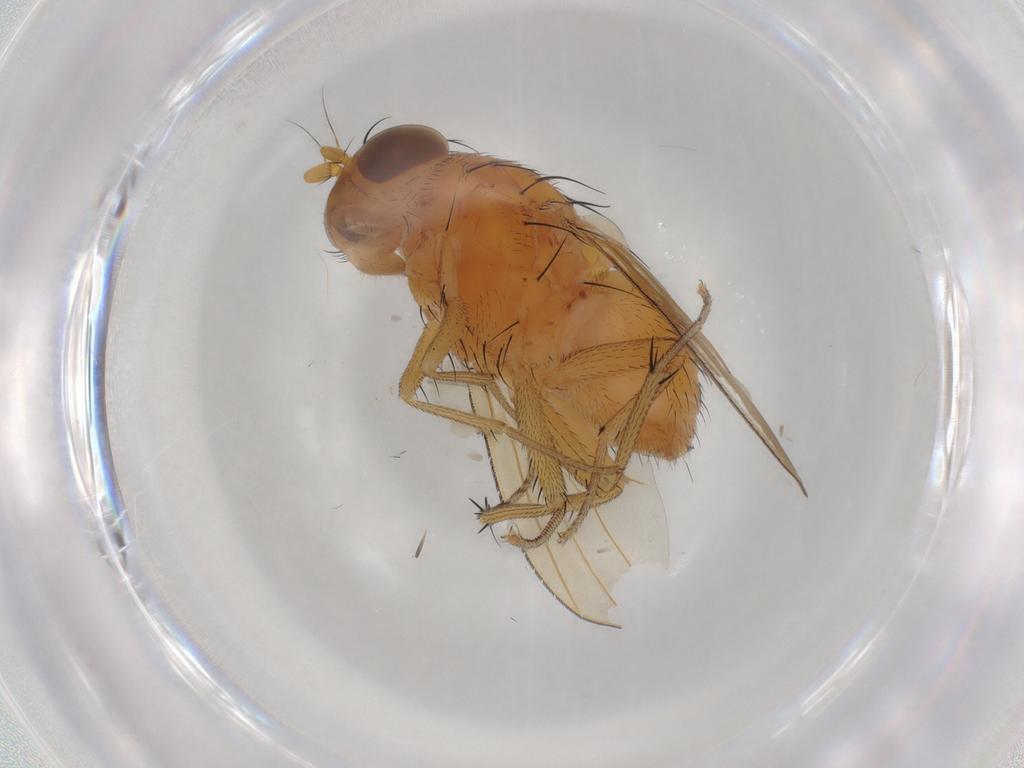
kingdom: Animalia
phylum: Arthropoda
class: Insecta
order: Diptera
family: Lauxaniidae
